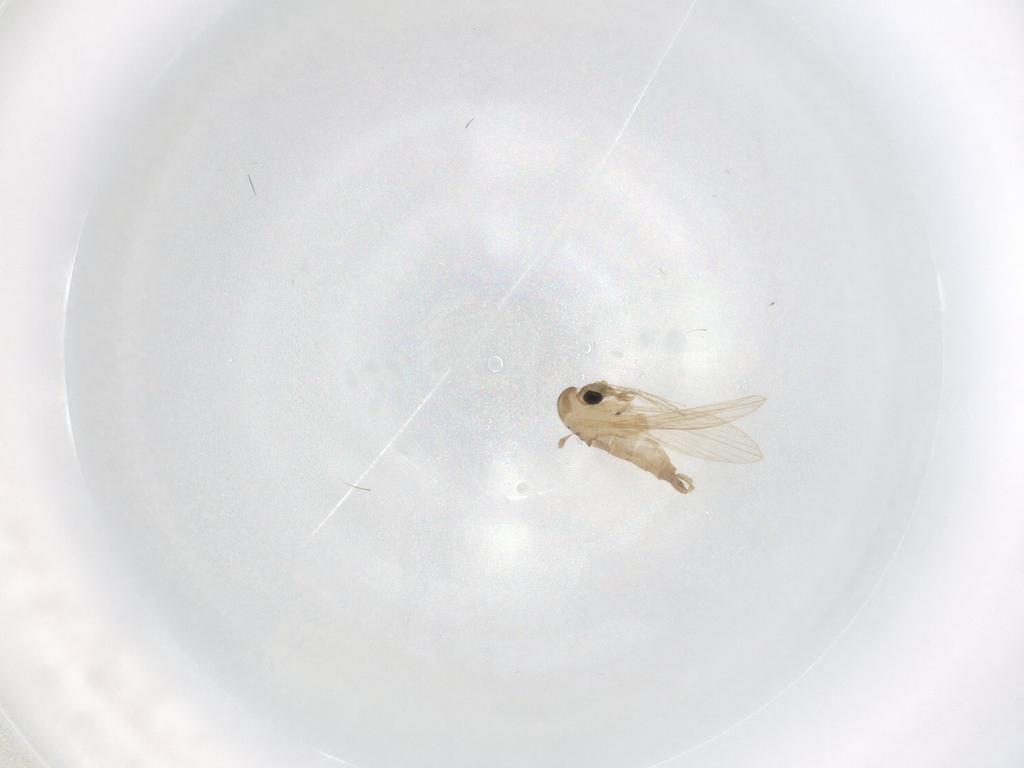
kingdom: Animalia
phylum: Arthropoda
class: Insecta
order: Diptera
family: Psychodidae
